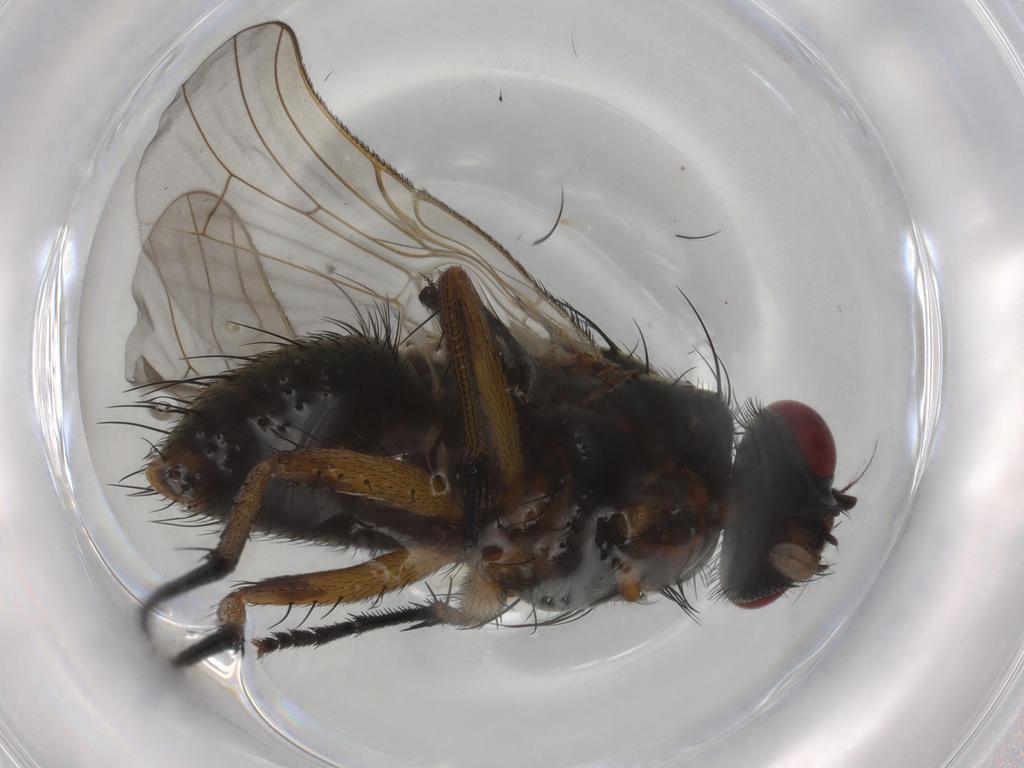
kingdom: Animalia
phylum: Arthropoda
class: Insecta
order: Diptera
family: Muscidae
